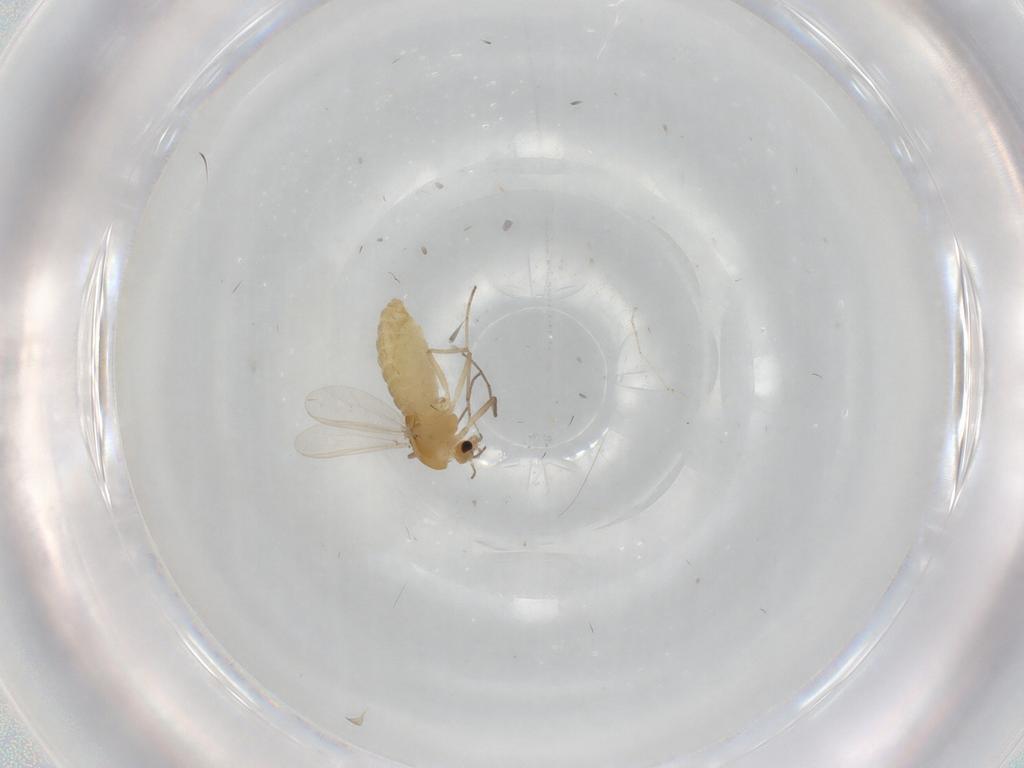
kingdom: Animalia
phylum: Arthropoda
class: Insecta
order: Diptera
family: Chironomidae
